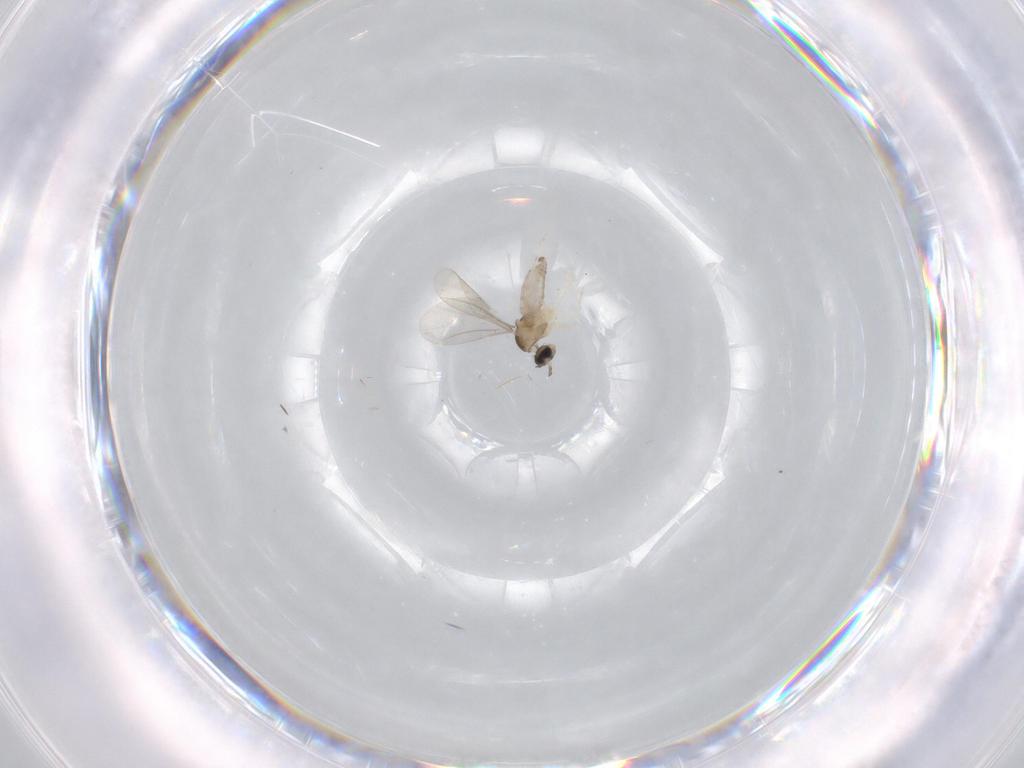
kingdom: Animalia
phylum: Arthropoda
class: Insecta
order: Diptera
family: Cecidomyiidae
